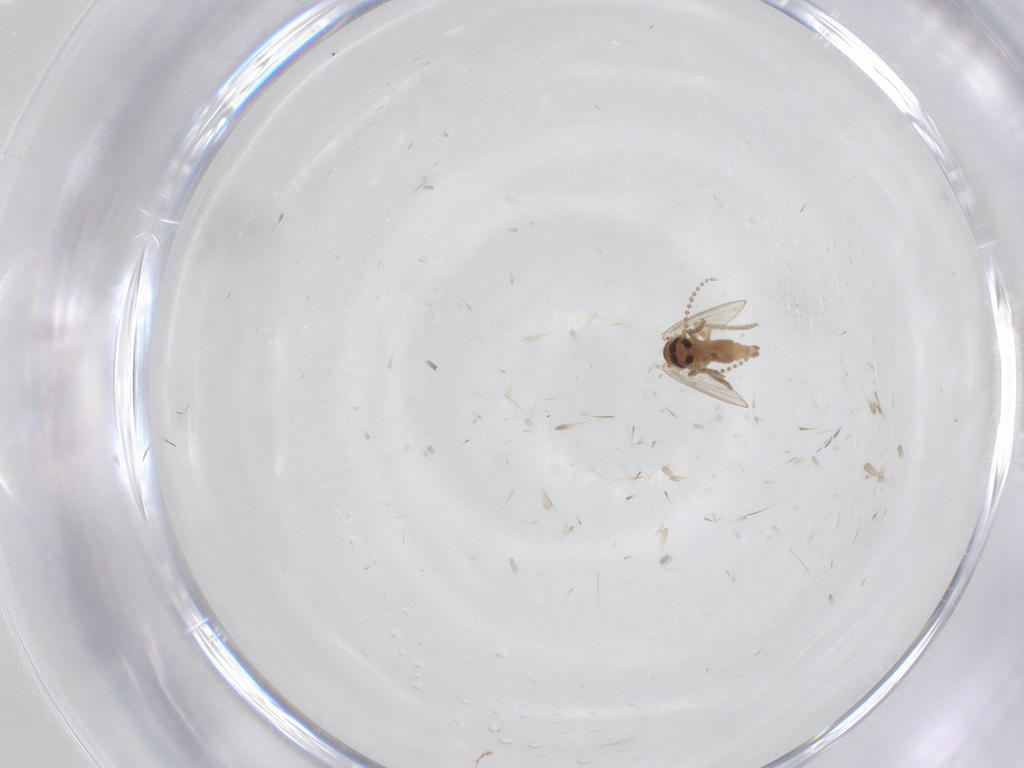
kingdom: Animalia
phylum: Arthropoda
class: Insecta
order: Diptera
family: Psychodidae
